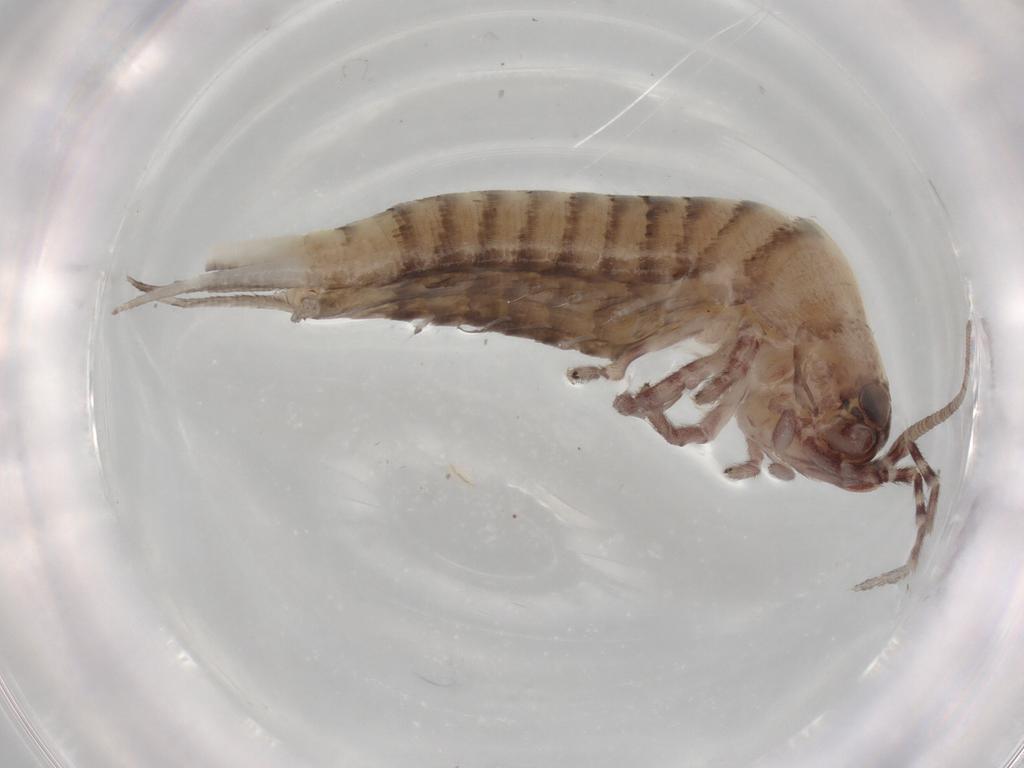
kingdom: Animalia
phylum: Arthropoda
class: Insecta
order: Archaeognatha
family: Machilidae
